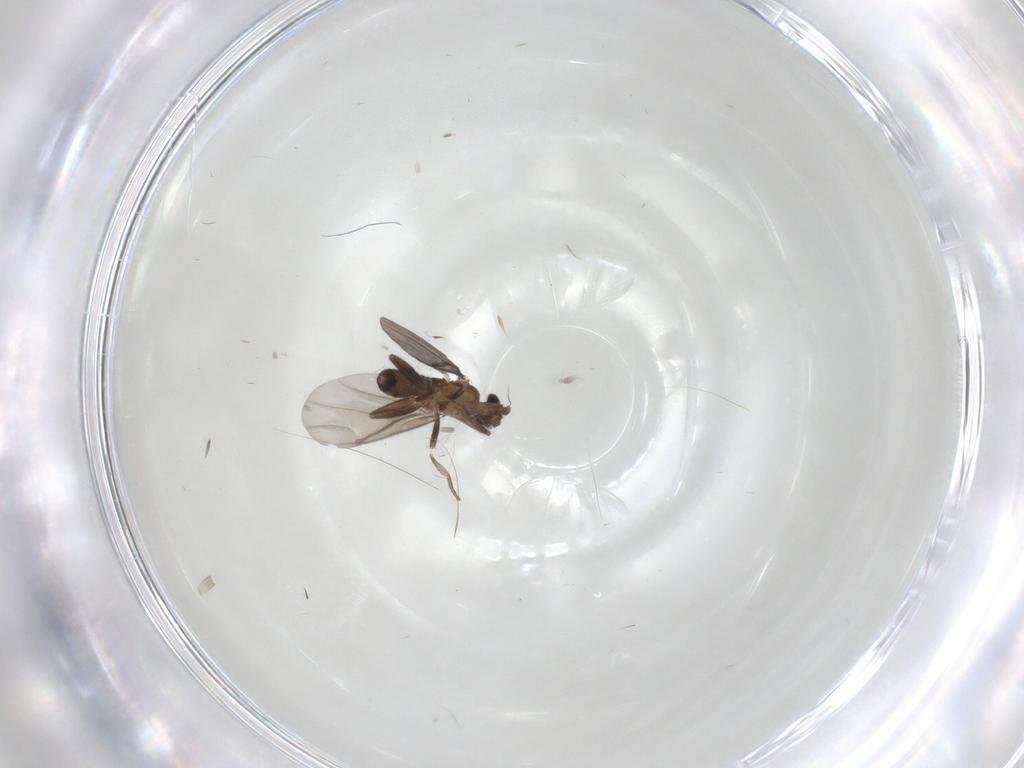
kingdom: Animalia
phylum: Arthropoda
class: Insecta
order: Diptera
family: Phoridae
